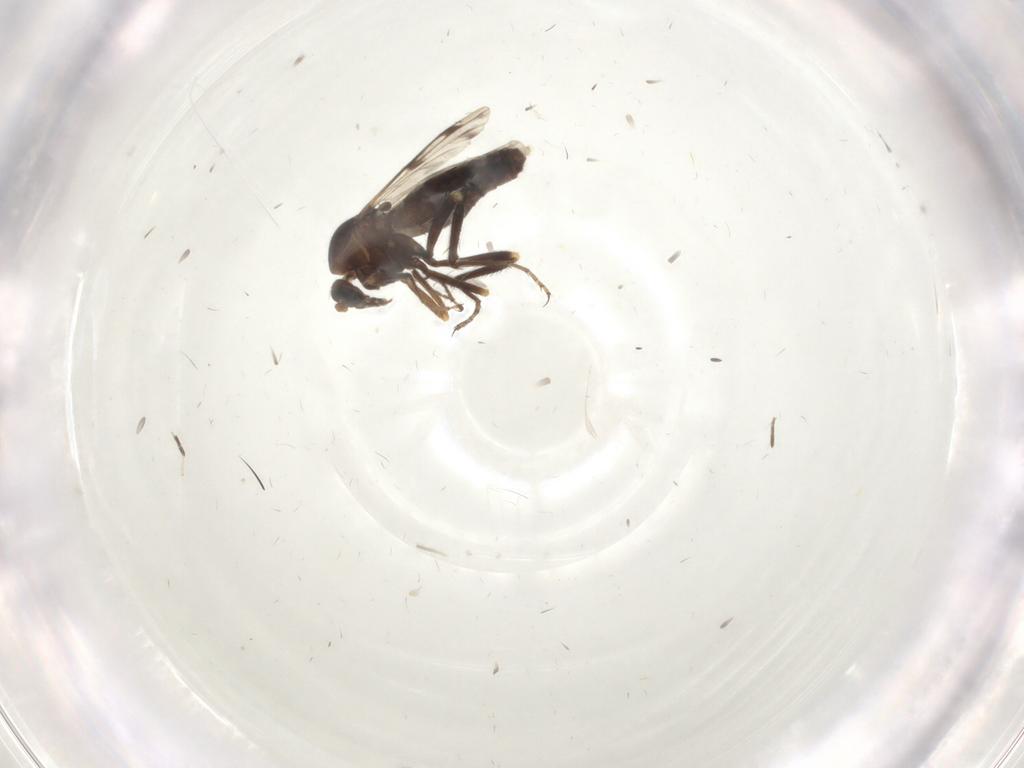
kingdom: Animalia
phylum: Arthropoda
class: Insecta
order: Diptera
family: Ceratopogonidae
